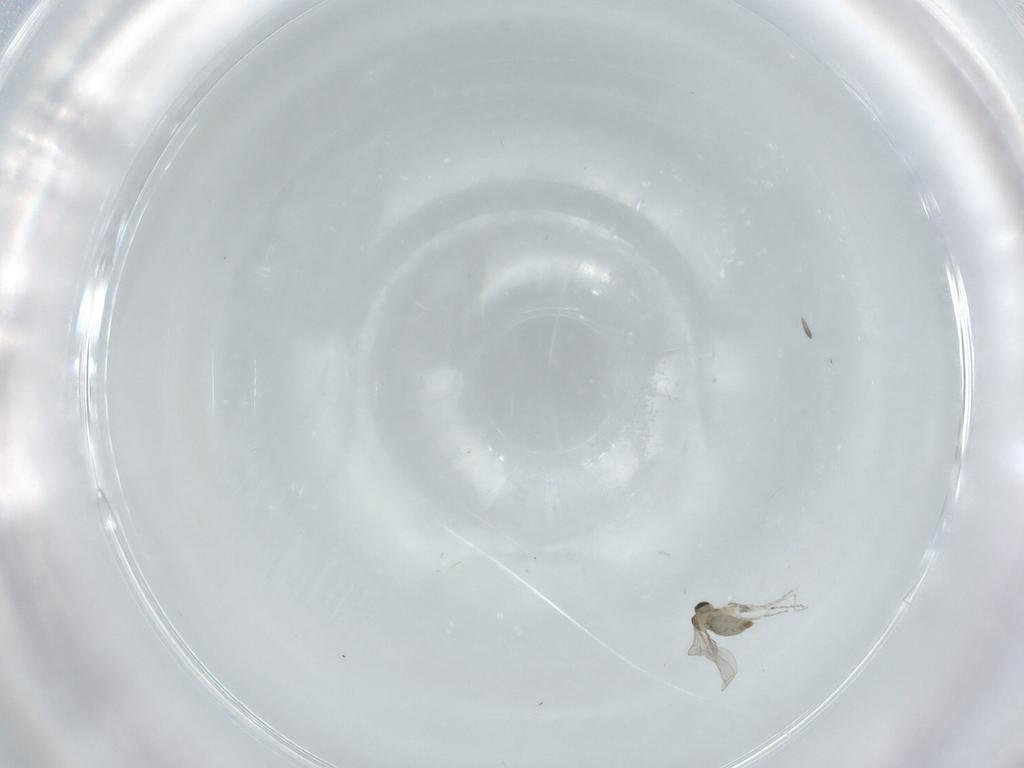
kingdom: Animalia
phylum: Arthropoda
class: Insecta
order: Diptera
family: Cecidomyiidae
